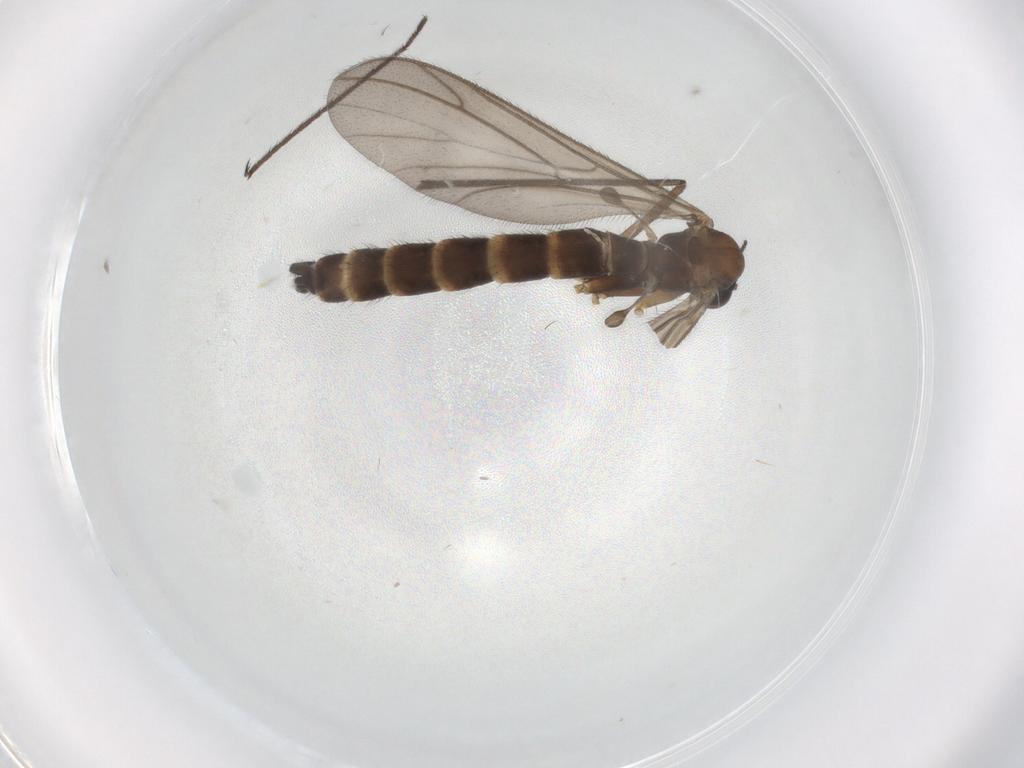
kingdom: Animalia
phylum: Arthropoda
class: Insecta
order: Diptera
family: Keroplatidae
